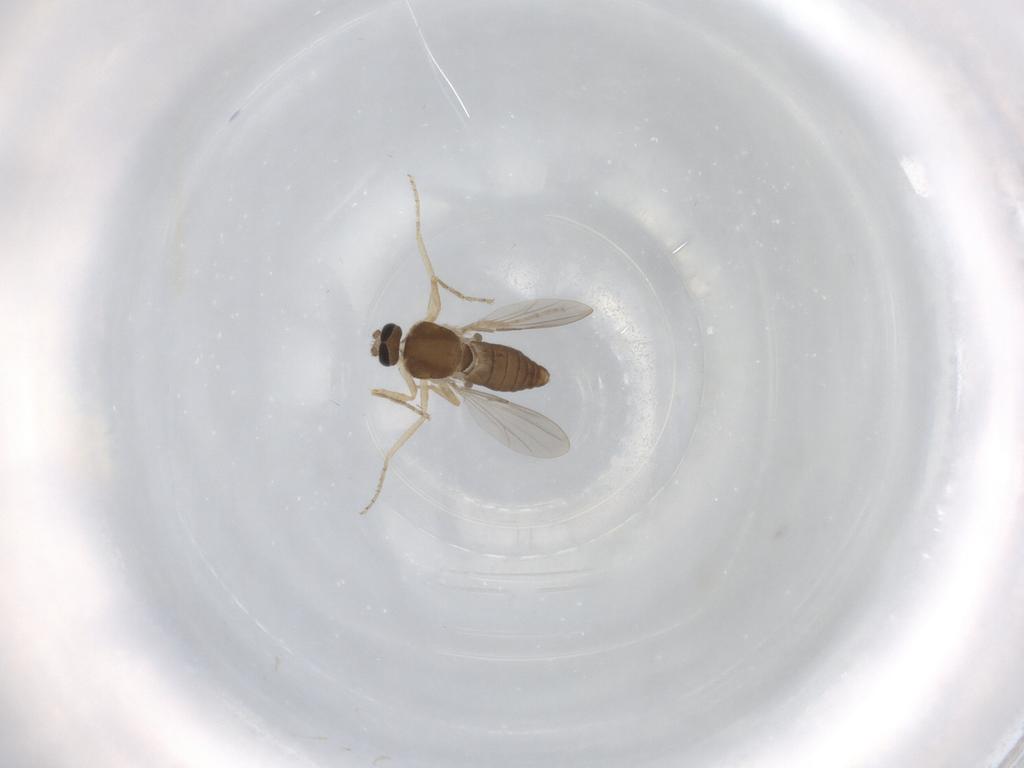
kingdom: Animalia
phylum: Arthropoda
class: Insecta
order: Diptera
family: Ceratopogonidae
